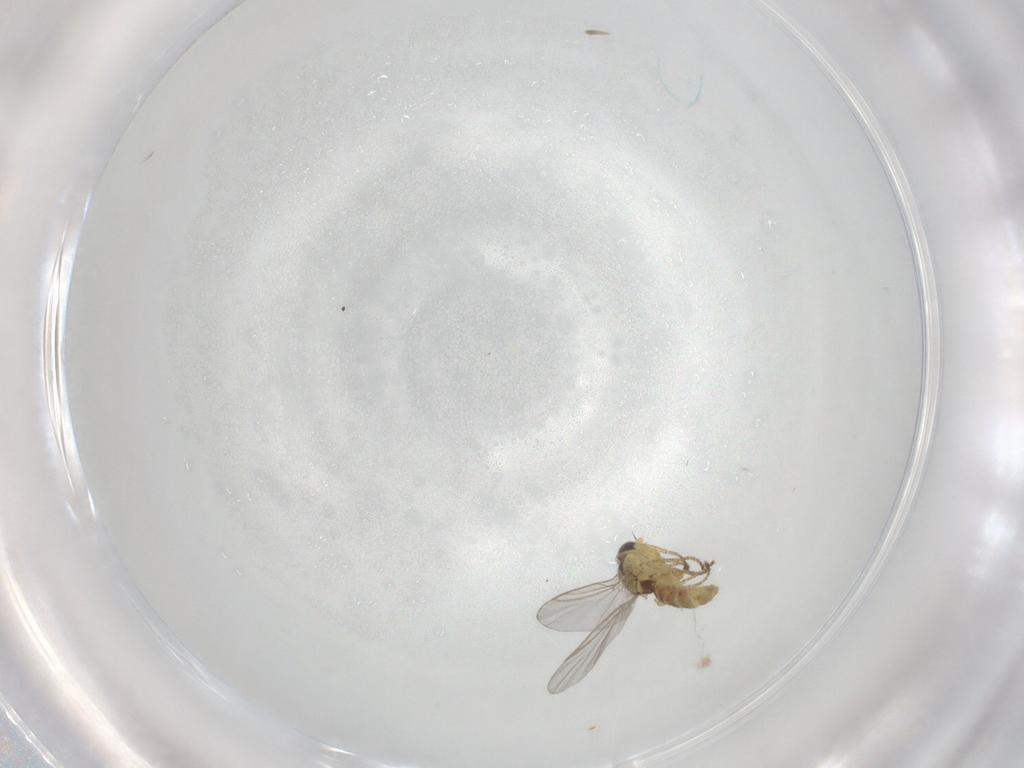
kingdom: Animalia
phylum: Arthropoda
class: Insecta
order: Diptera
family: Agromyzidae
